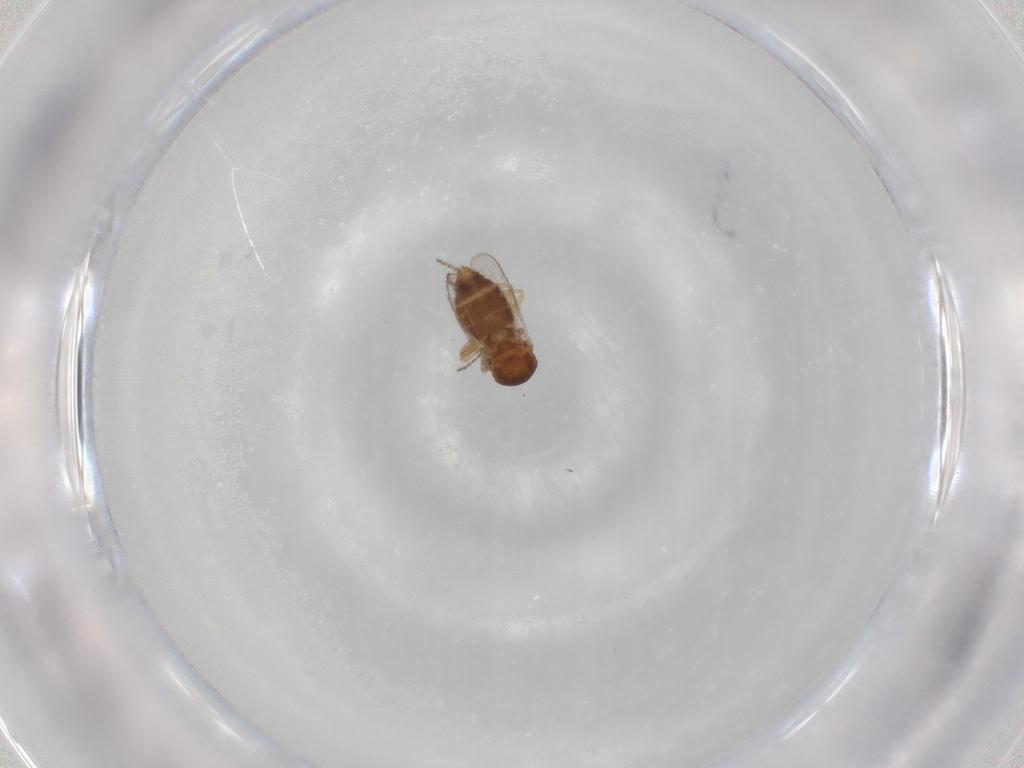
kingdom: Animalia
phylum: Arthropoda
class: Insecta
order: Diptera
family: Ceratopogonidae
